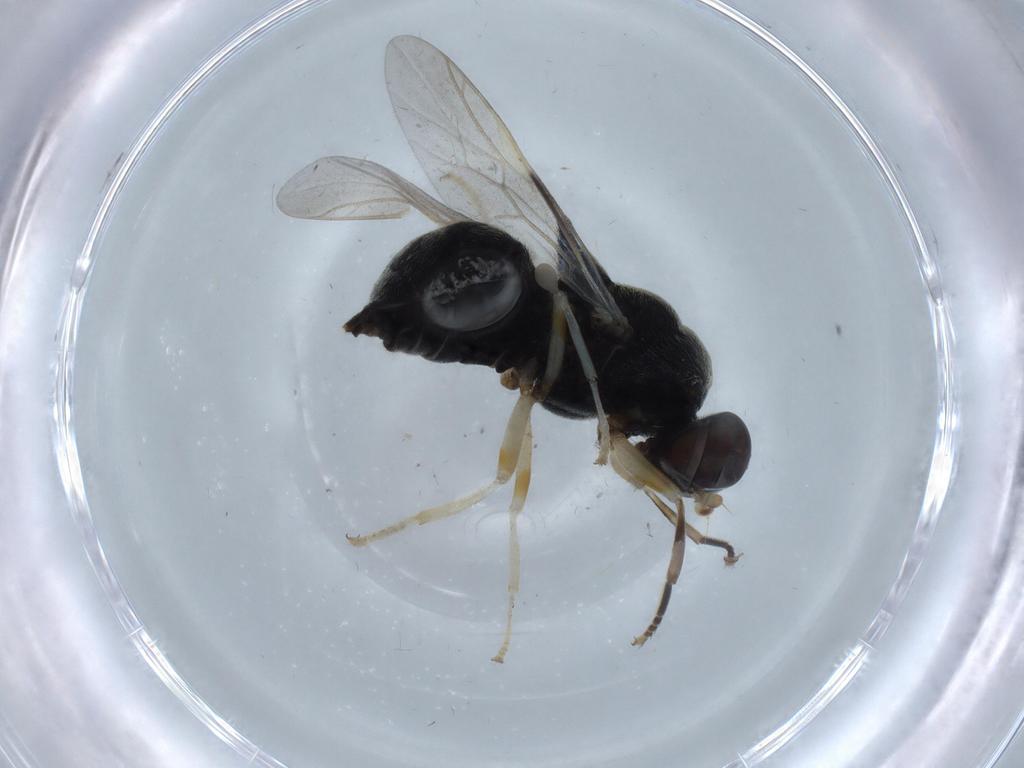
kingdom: Animalia
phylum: Arthropoda
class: Insecta
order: Diptera
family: Stratiomyidae
